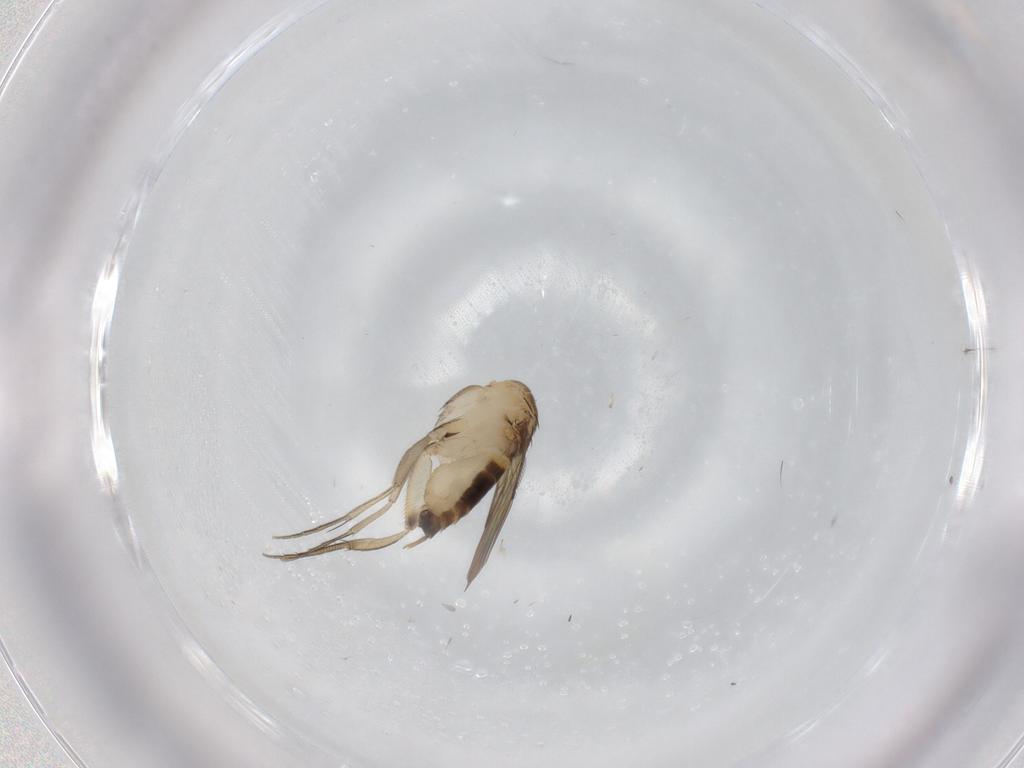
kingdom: Animalia
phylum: Arthropoda
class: Insecta
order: Diptera
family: Phoridae
